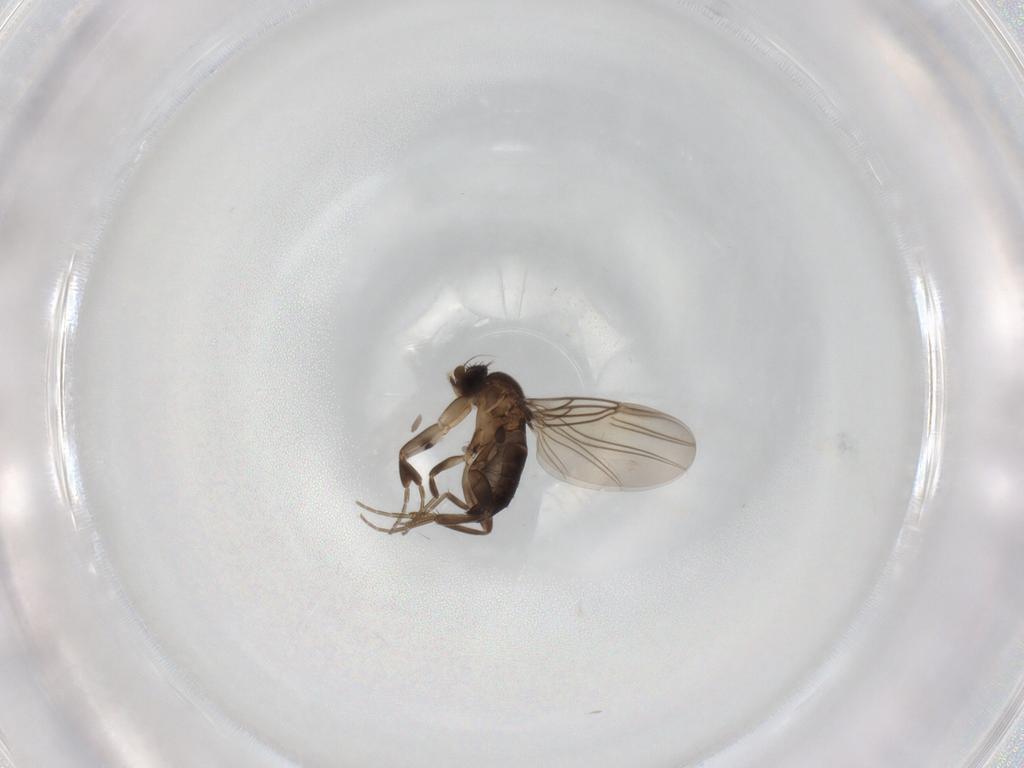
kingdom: Animalia
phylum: Arthropoda
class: Insecta
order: Diptera
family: Phoridae
